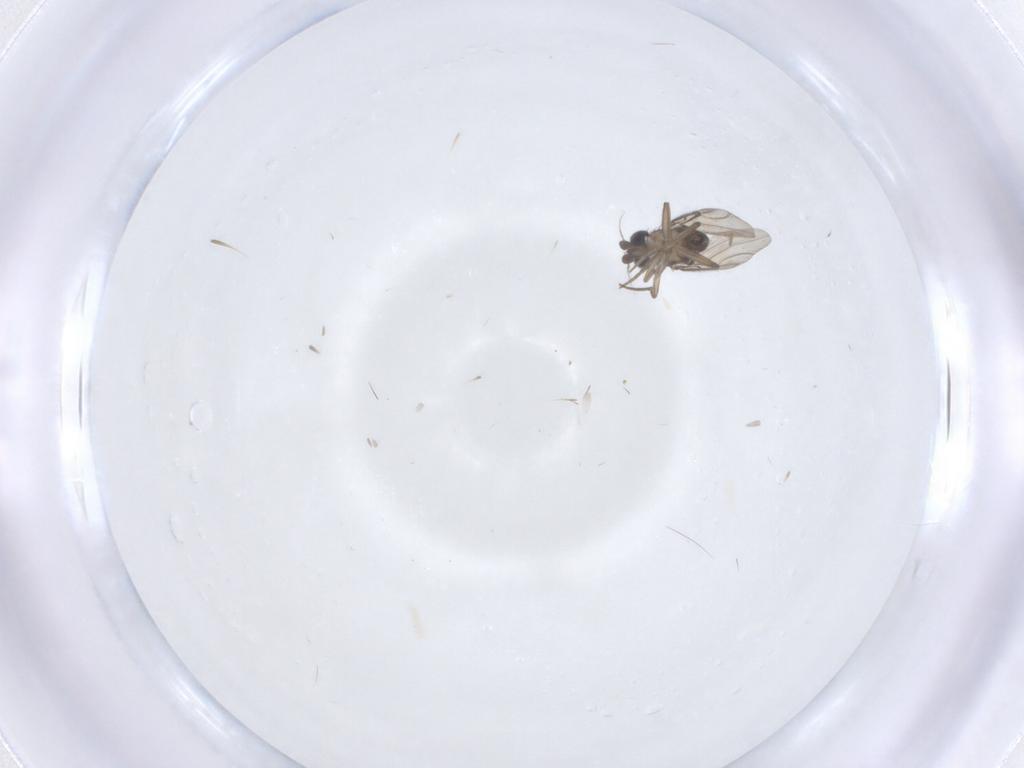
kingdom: Animalia
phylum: Arthropoda
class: Insecta
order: Diptera
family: Phoridae
